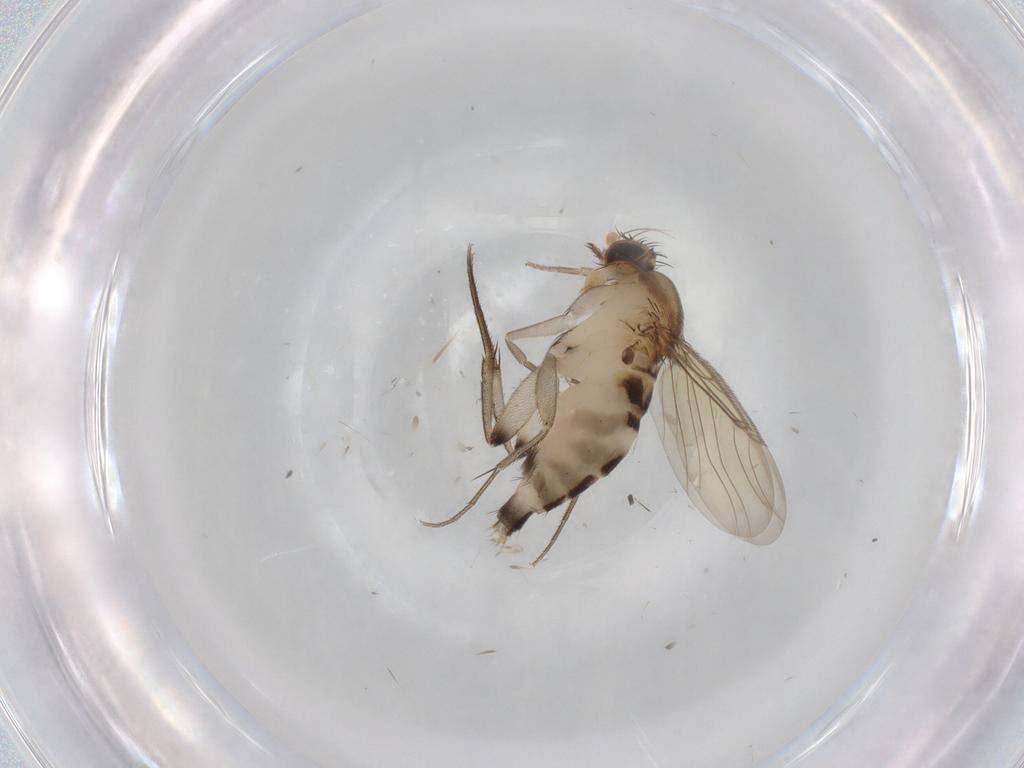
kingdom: Animalia
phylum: Arthropoda
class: Insecta
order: Diptera
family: Phoridae
